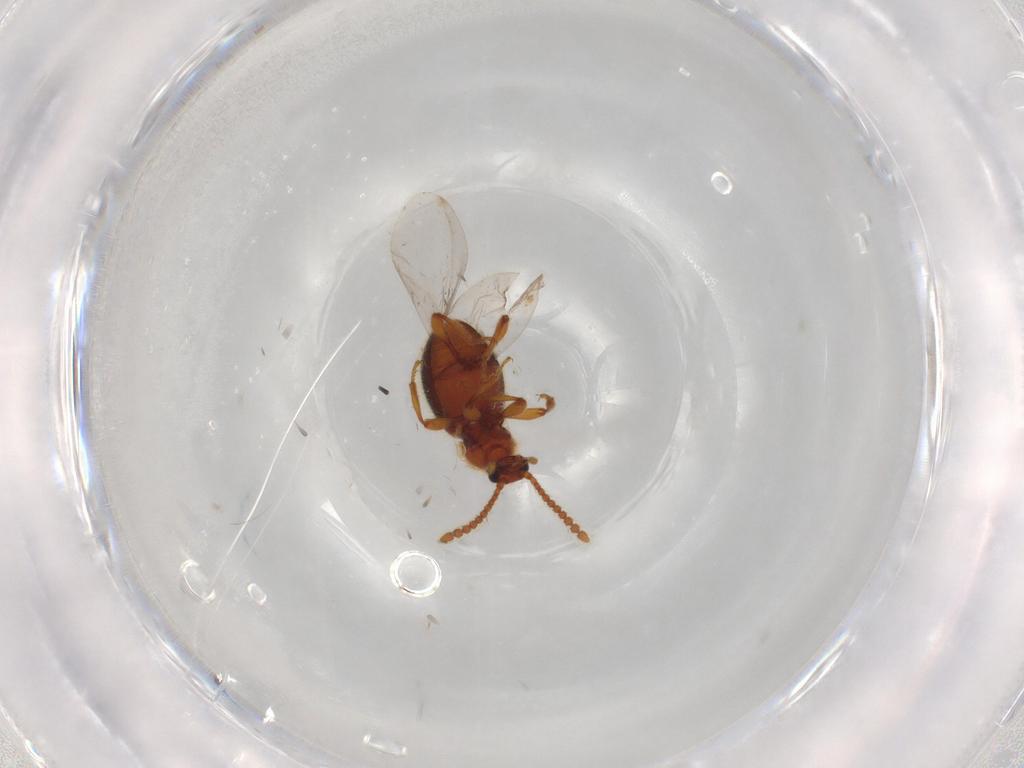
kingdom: Animalia
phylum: Arthropoda
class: Insecta
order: Coleoptera
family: Staphylinidae
